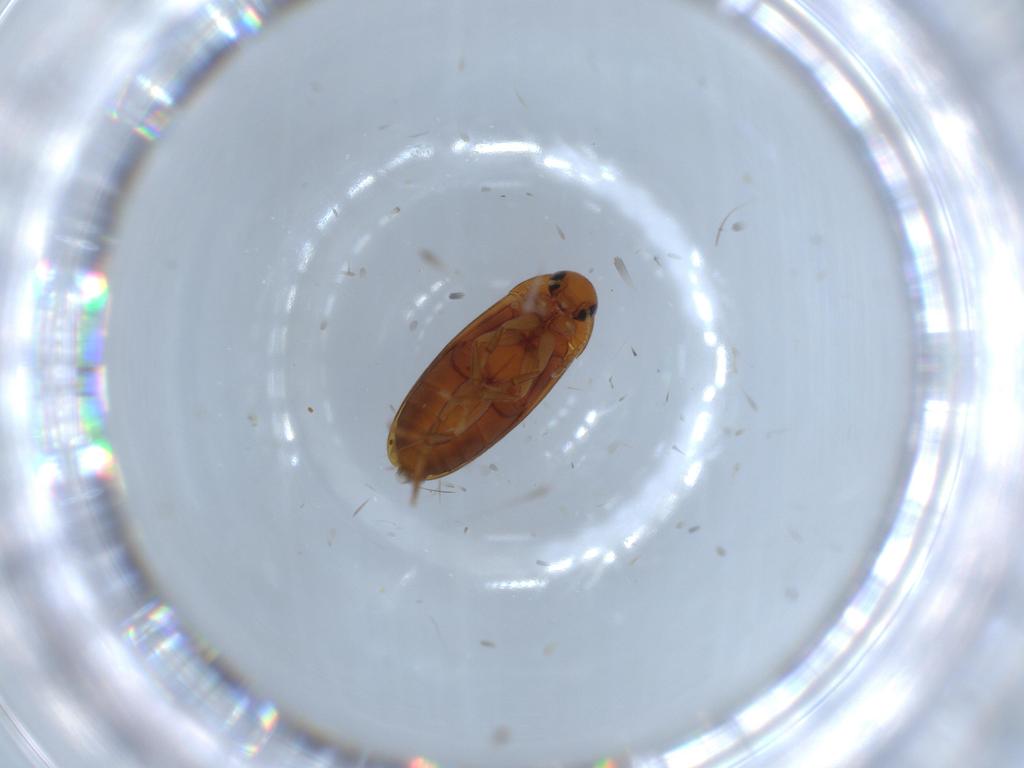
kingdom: Animalia
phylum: Arthropoda
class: Insecta
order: Coleoptera
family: Scraptiidae
